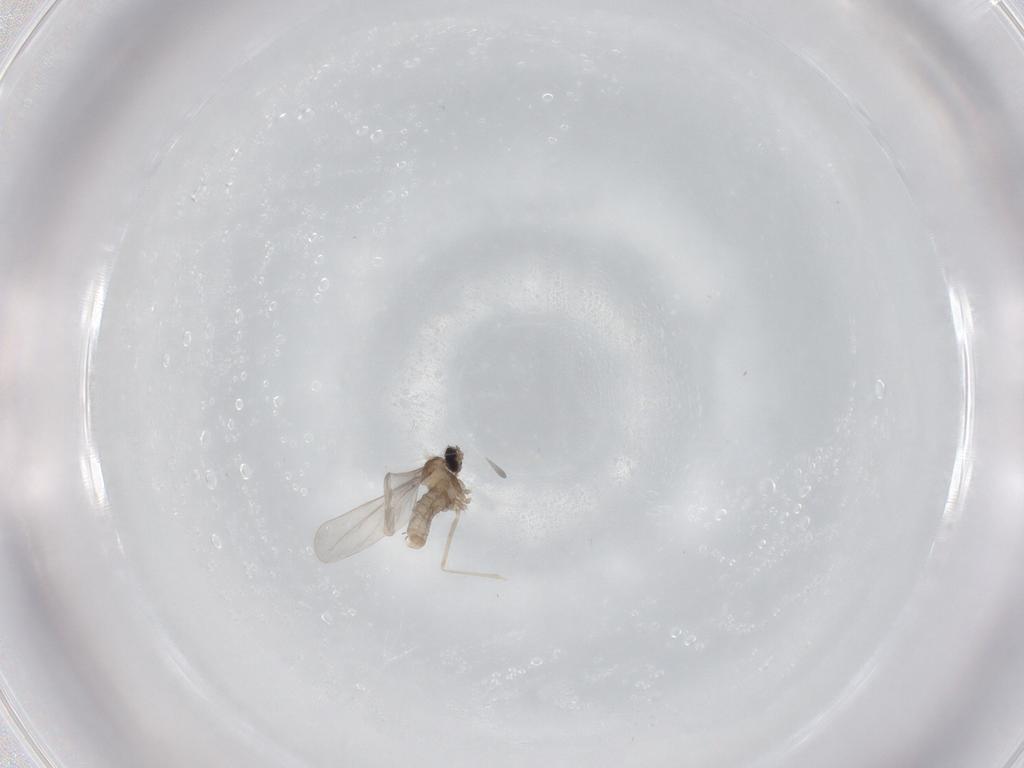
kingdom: Animalia
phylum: Arthropoda
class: Insecta
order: Diptera
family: Cecidomyiidae
